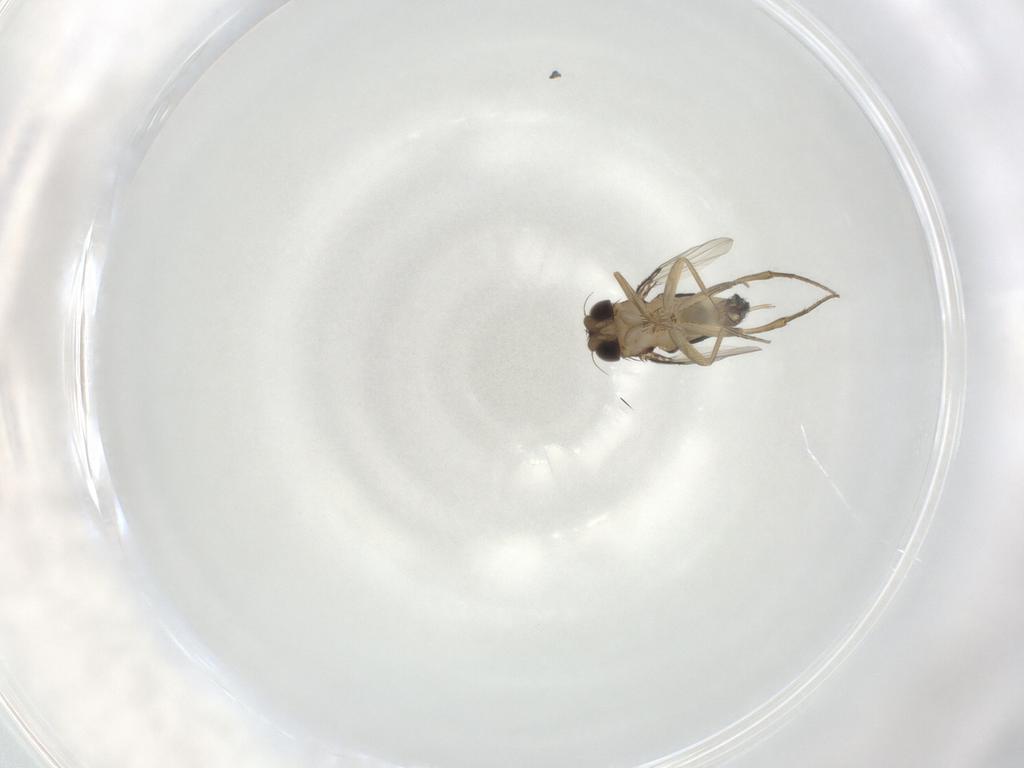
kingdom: Animalia
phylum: Arthropoda
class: Insecta
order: Diptera
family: Phoridae
